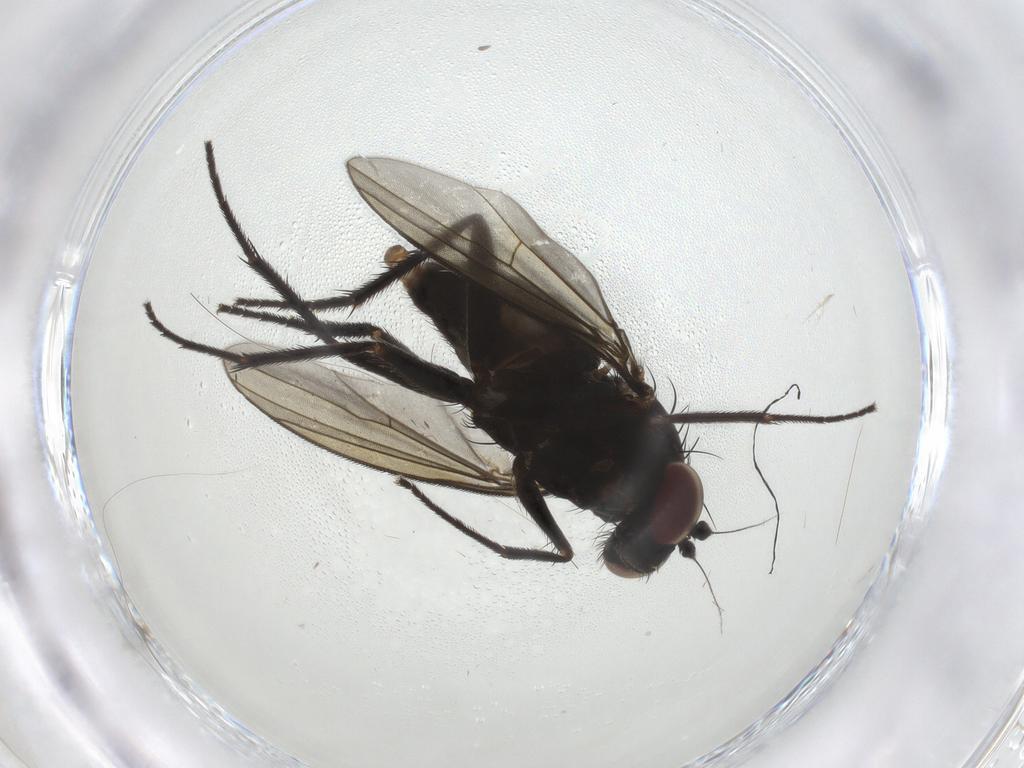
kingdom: Animalia
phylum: Arthropoda
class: Insecta
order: Diptera
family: Dolichopodidae
